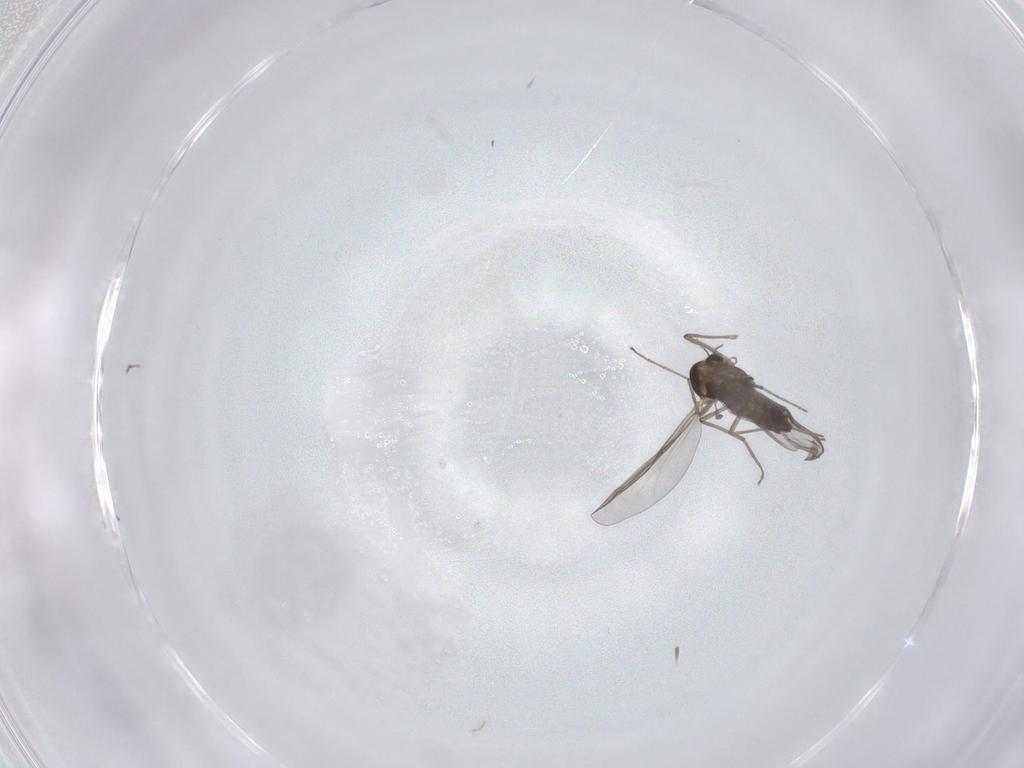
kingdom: Animalia
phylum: Arthropoda
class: Insecta
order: Diptera
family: Chironomidae
